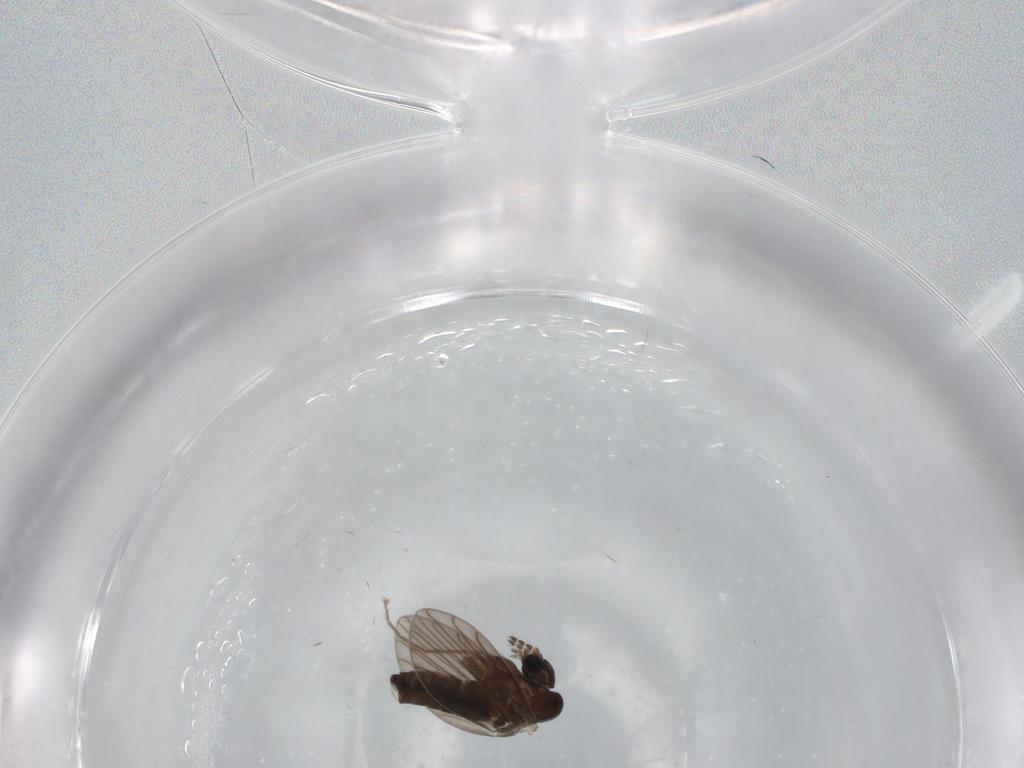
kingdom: Animalia
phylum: Arthropoda
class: Insecta
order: Diptera
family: Chironomidae
